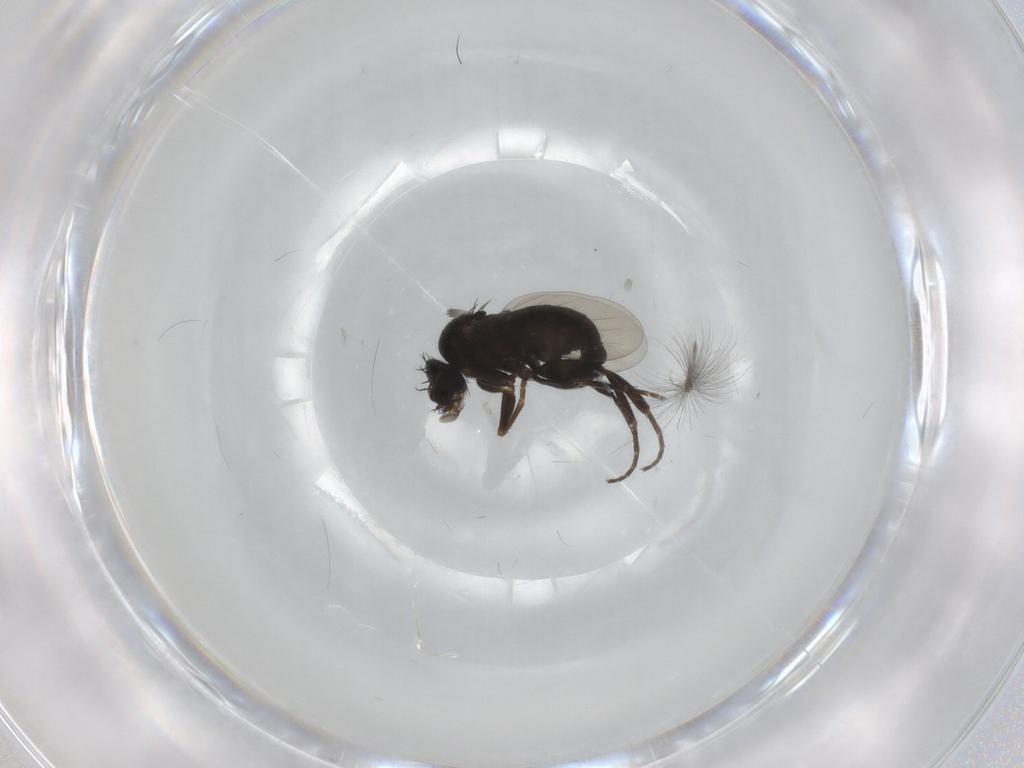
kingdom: Animalia
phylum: Arthropoda
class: Insecta
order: Diptera
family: Phoridae
